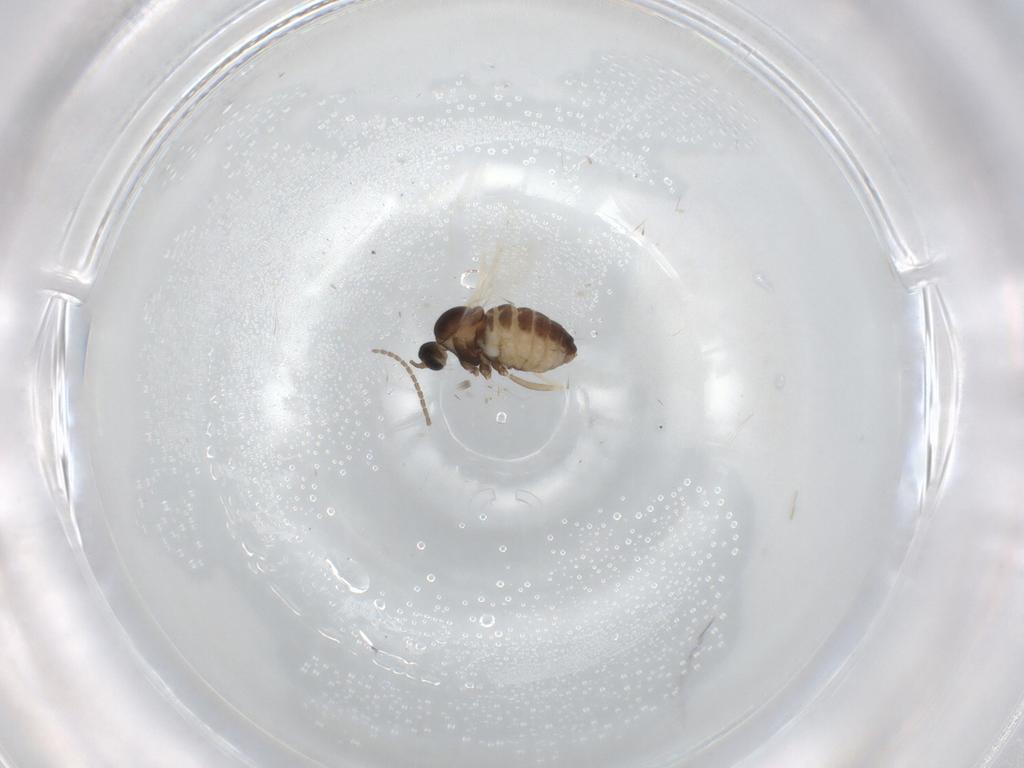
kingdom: Animalia
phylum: Arthropoda
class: Insecta
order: Diptera
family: Cecidomyiidae
